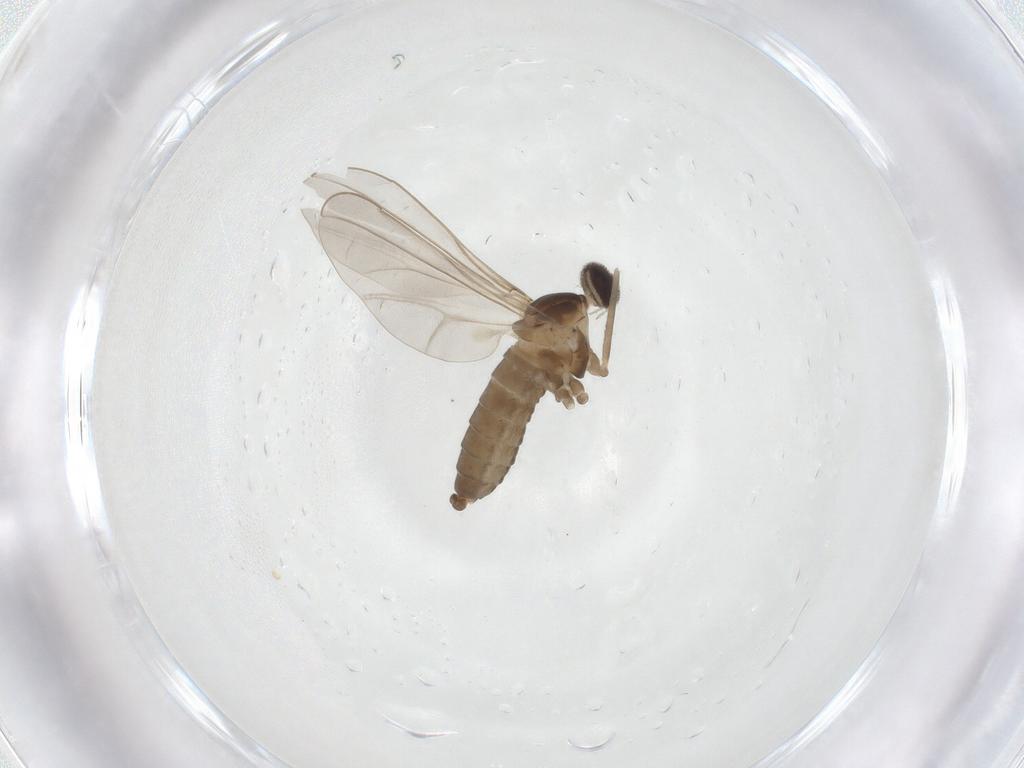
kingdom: Animalia
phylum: Arthropoda
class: Insecta
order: Diptera
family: Cecidomyiidae
